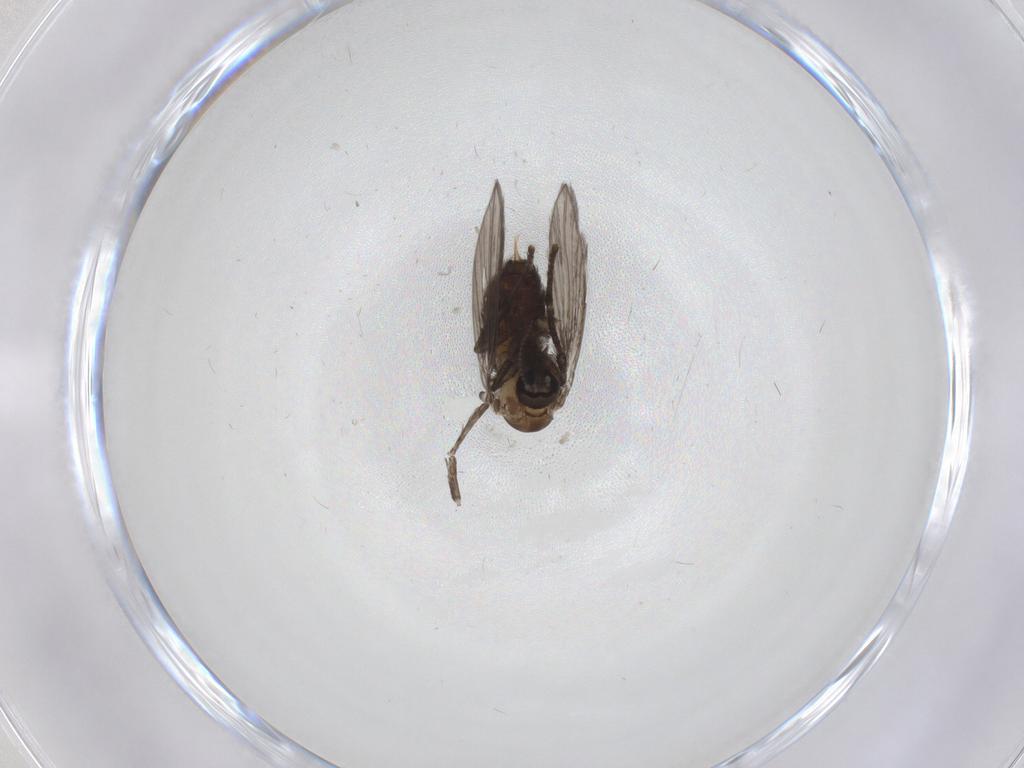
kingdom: Animalia
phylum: Arthropoda
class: Insecta
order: Diptera
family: Psychodidae
